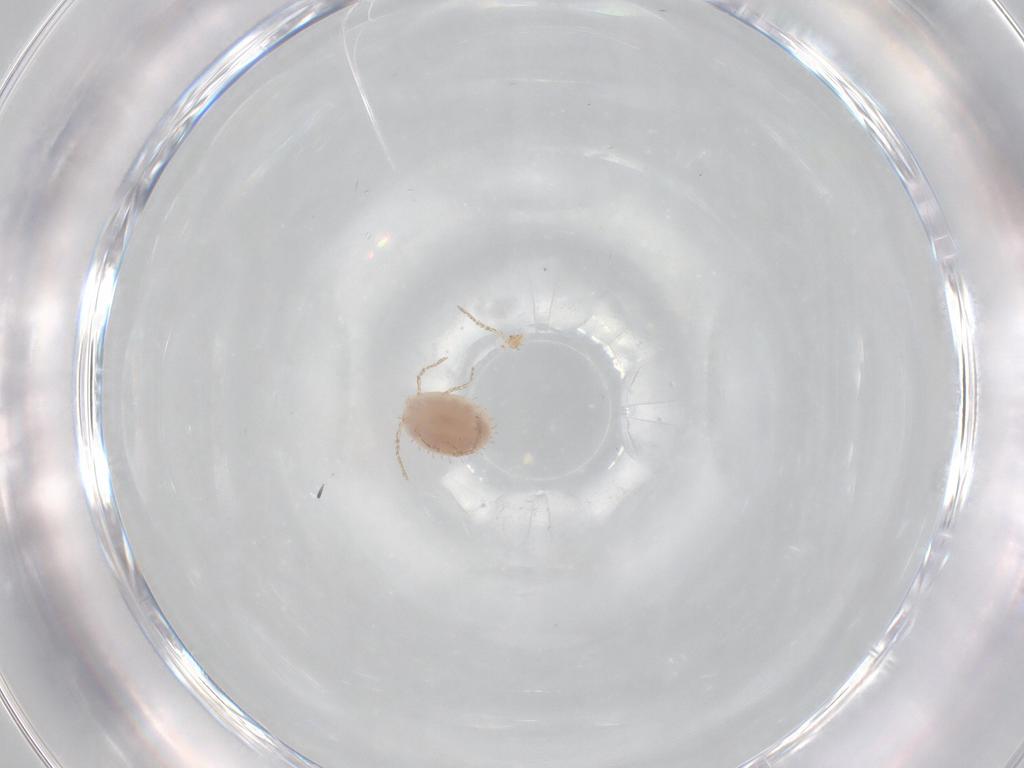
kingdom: Animalia
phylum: Arthropoda
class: Arachnida
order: Trombidiformes
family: Erythraeidae
